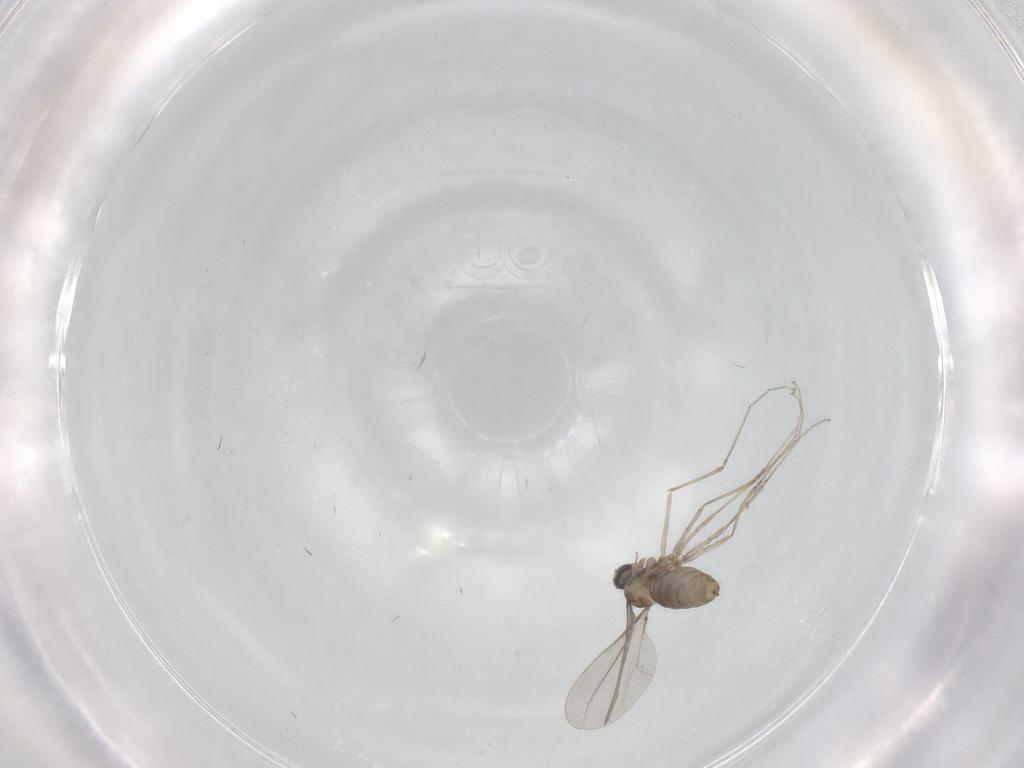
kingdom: Animalia
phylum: Arthropoda
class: Insecta
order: Diptera
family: Cecidomyiidae
